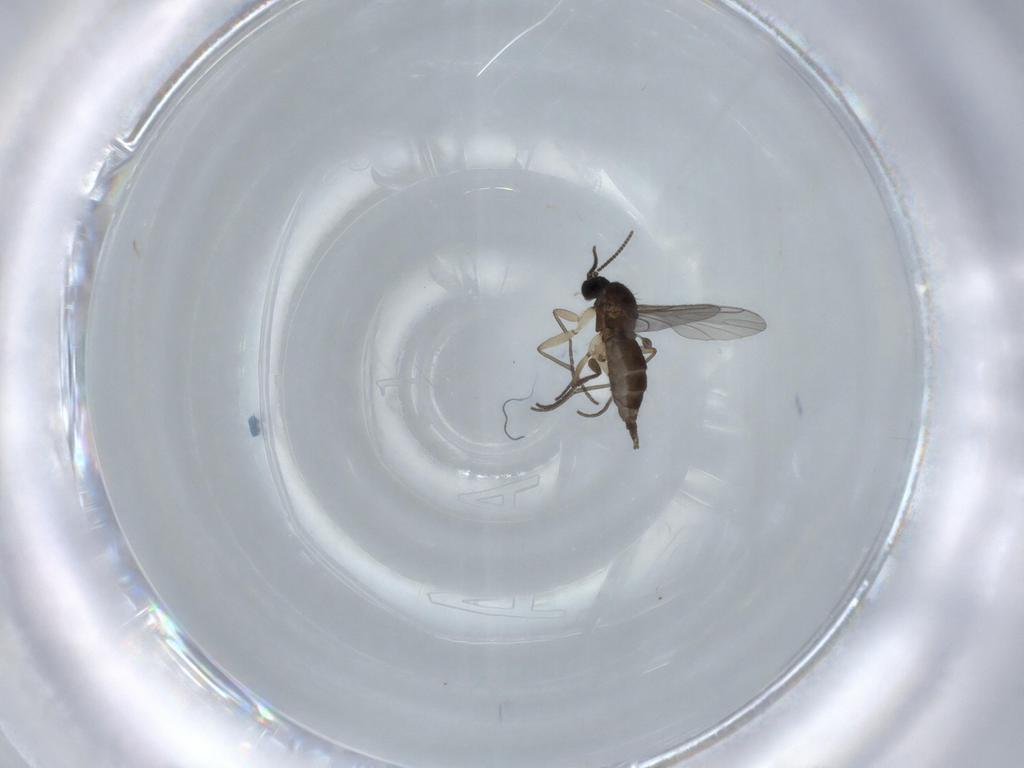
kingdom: Animalia
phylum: Arthropoda
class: Insecta
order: Diptera
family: Sciaridae
